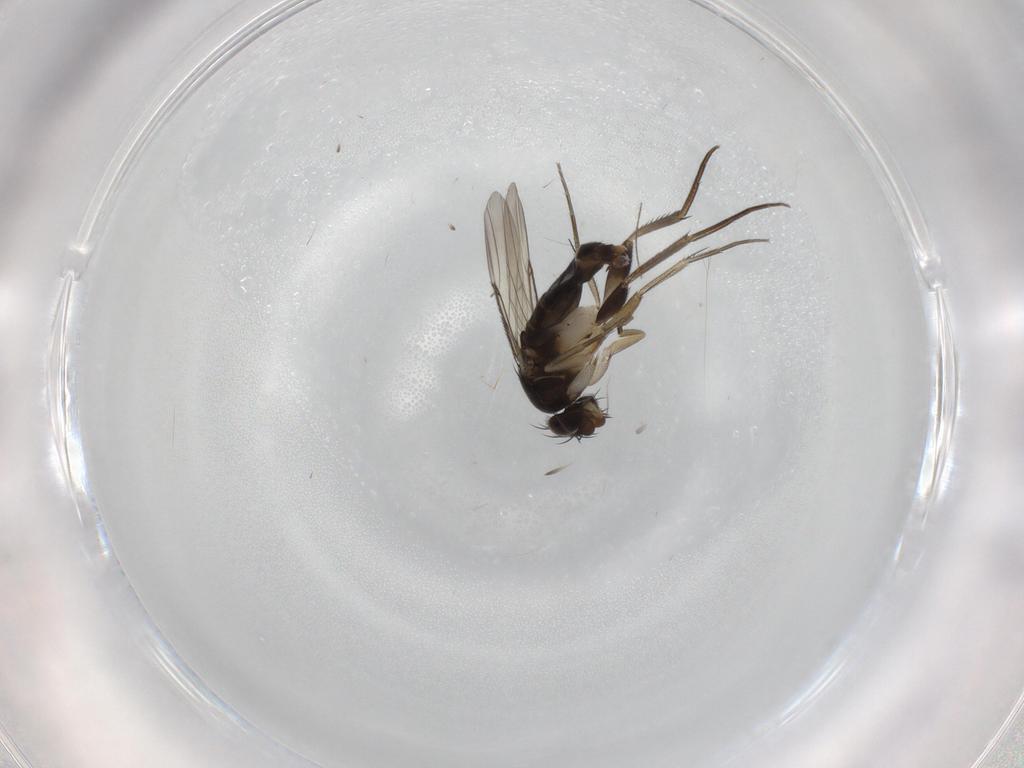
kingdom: Animalia
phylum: Arthropoda
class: Insecta
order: Diptera
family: Phoridae
